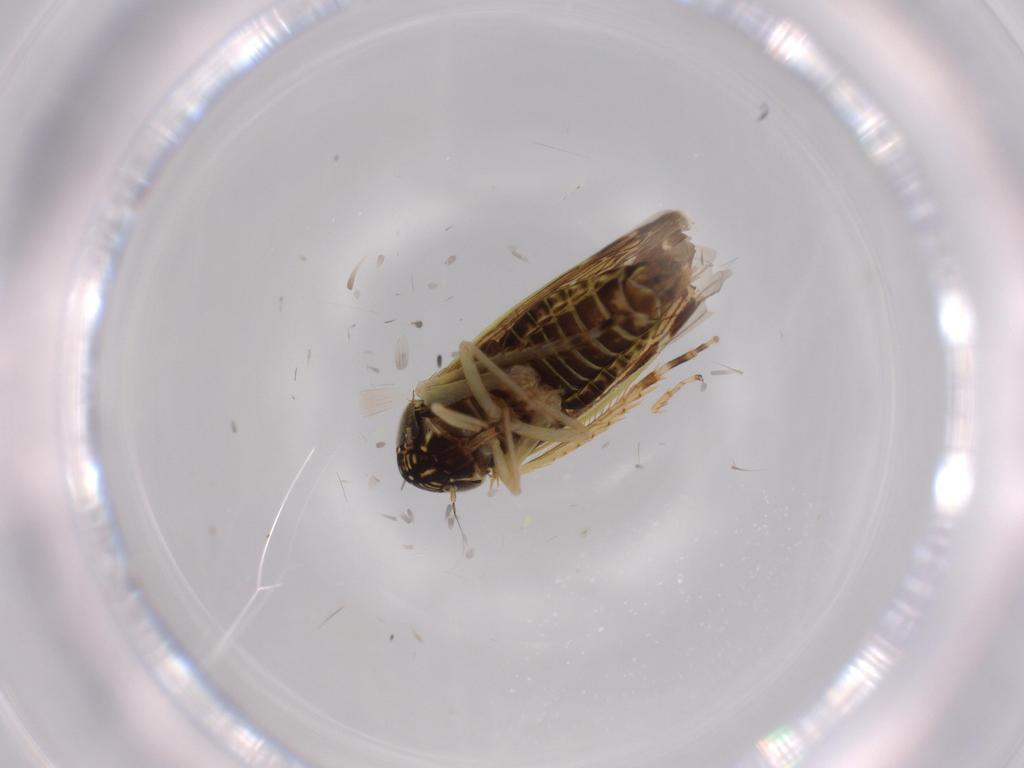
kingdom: Animalia
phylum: Arthropoda
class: Insecta
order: Hemiptera
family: Cicadellidae
